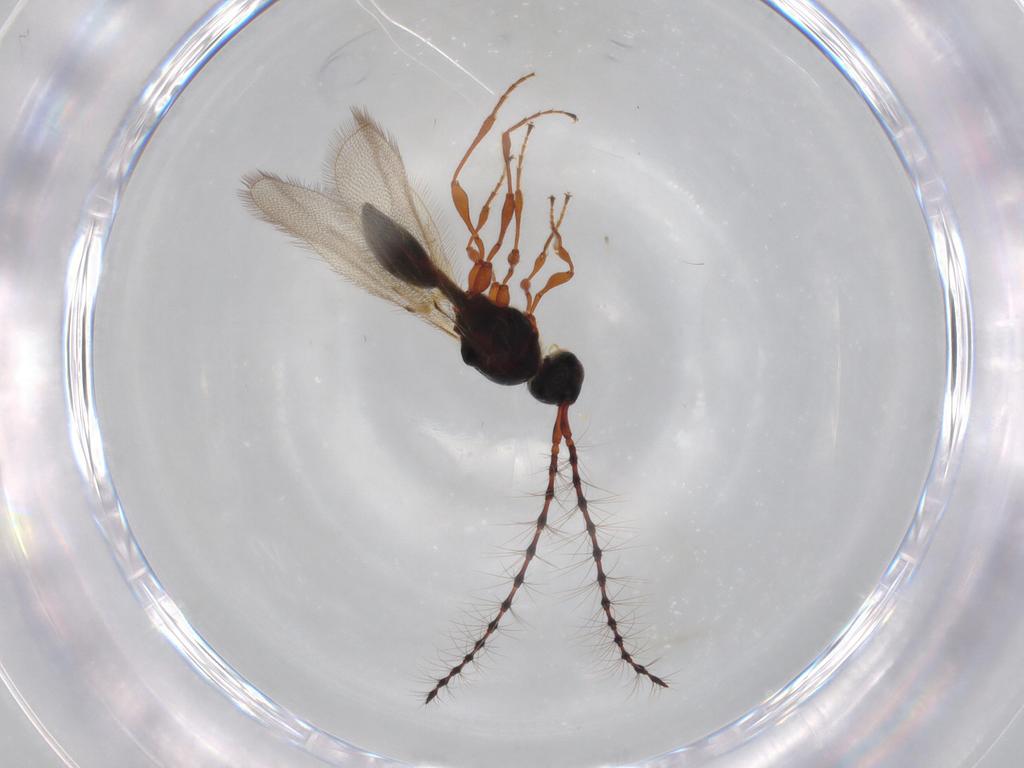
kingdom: Animalia
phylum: Arthropoda
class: Insecta
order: Hymenoptera
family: Diapriidae
